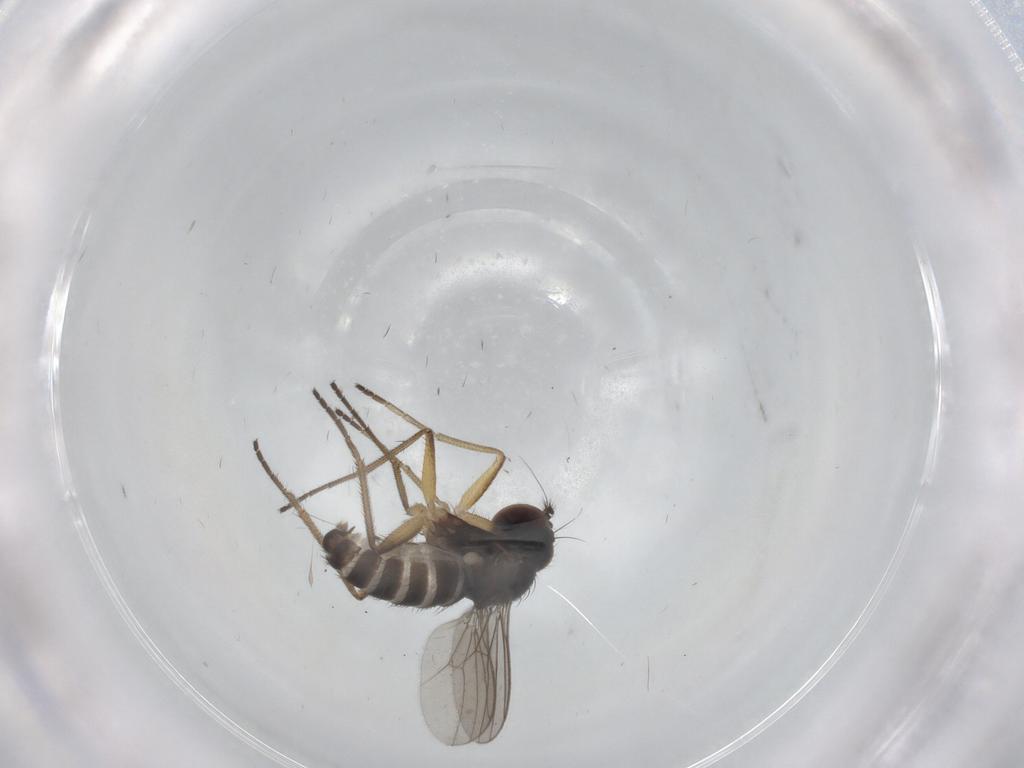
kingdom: Animalia
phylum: Arthropoda
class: Insecta
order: Diptera
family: Dolichopodidae
